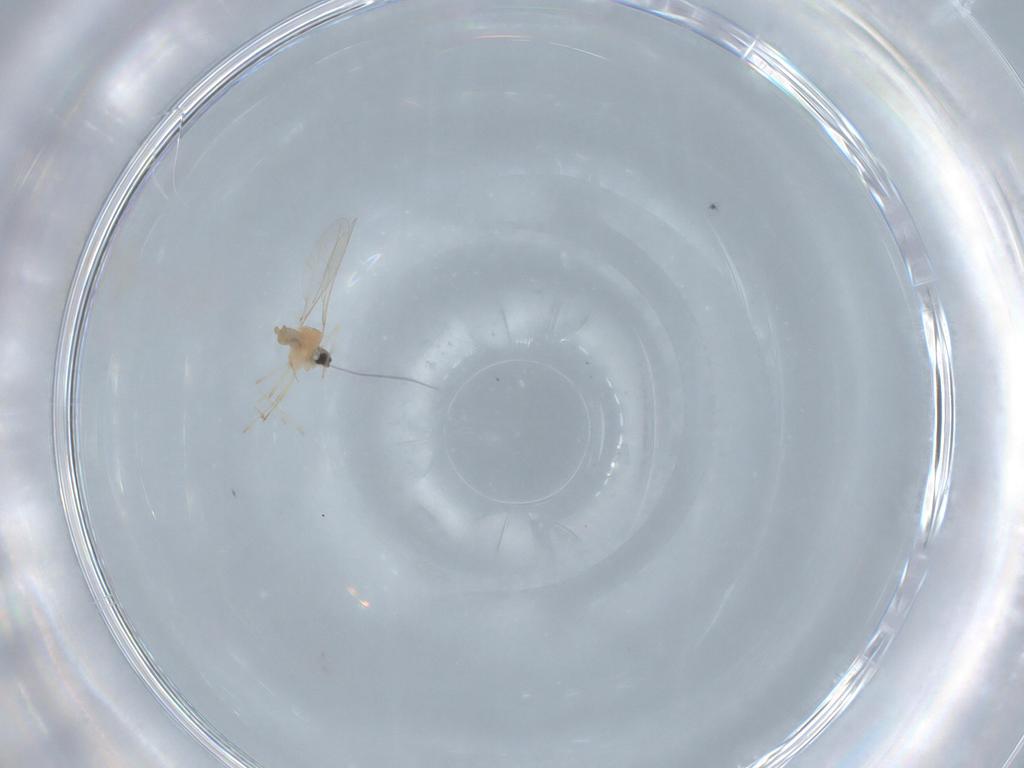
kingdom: Animalia
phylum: Arthropoda
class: Insecta
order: Diptera
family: Cecidomyiidae
